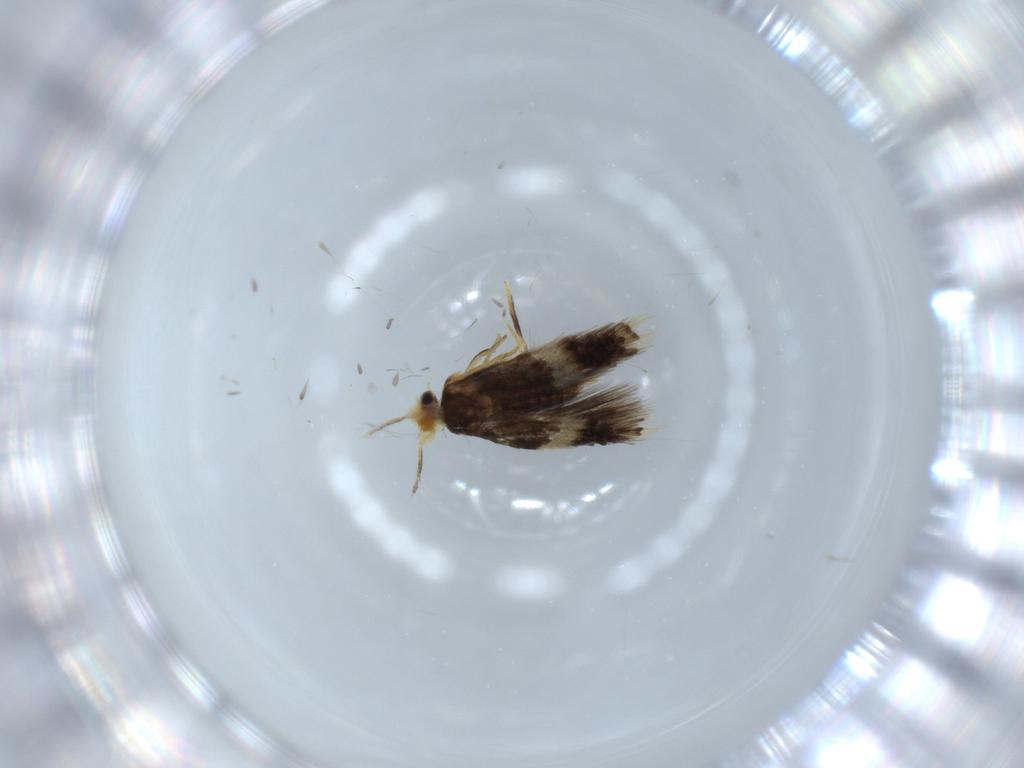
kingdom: Animalia
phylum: Arthropoda
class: Insecta
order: Lepidoptera
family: Nepticulidae
